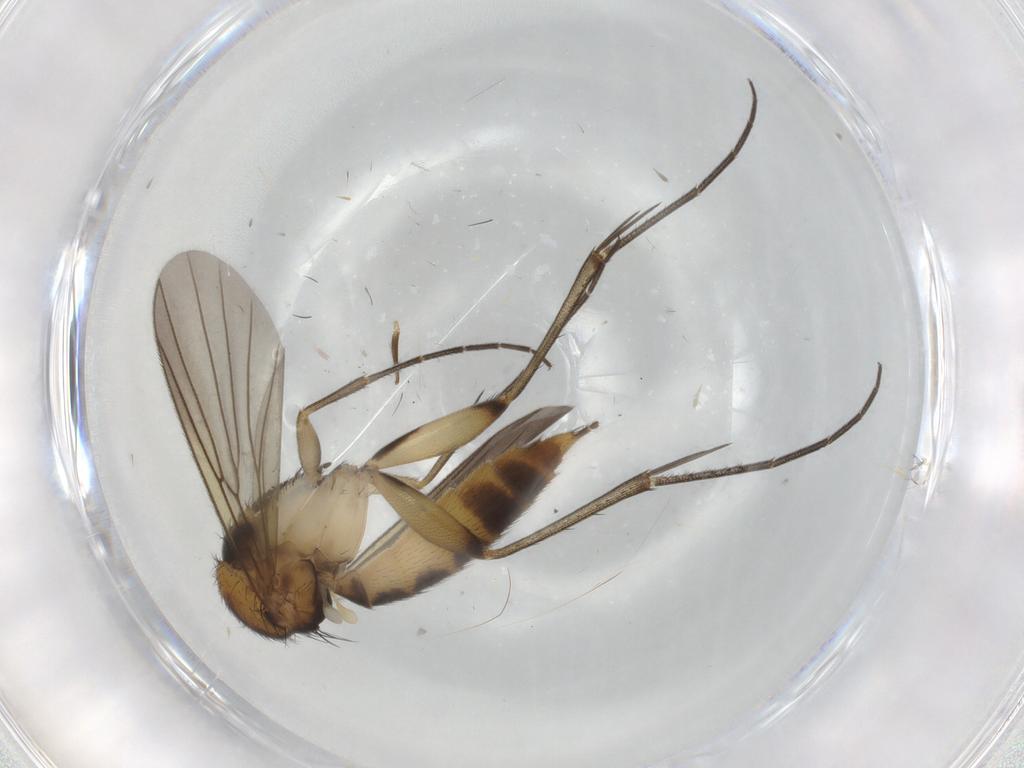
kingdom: Animalia
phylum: Arthropoda
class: Insecta
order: Diptera
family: Mycetophilidae
